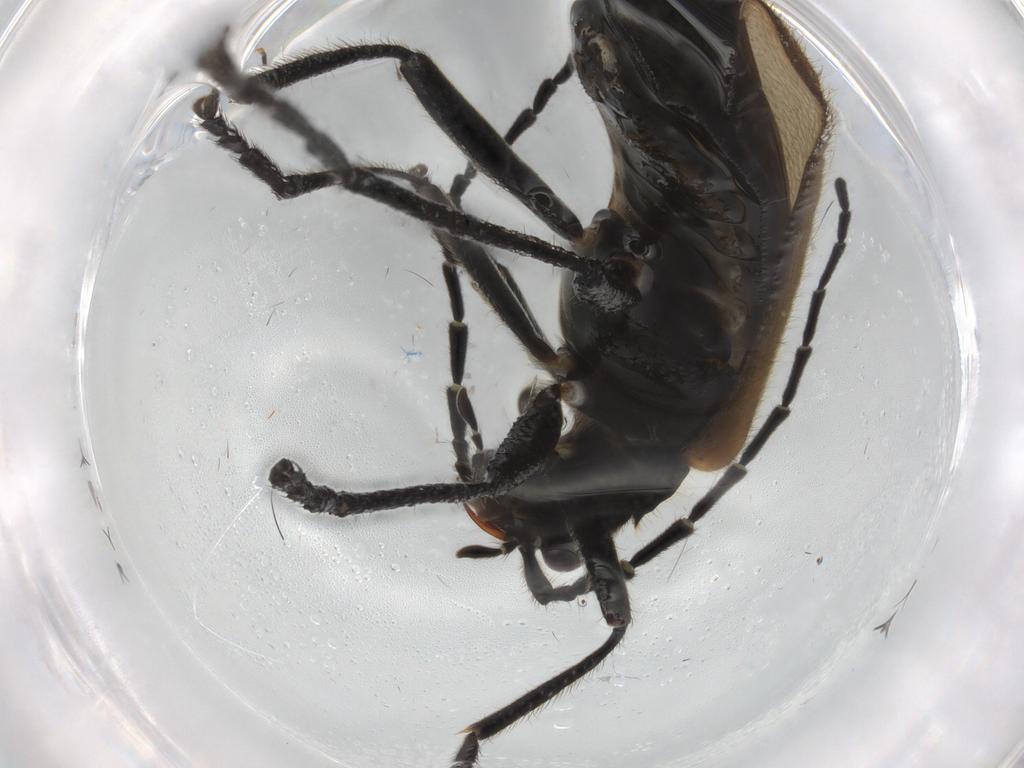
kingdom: Animalia
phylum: Arthropoda
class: Insecta
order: Coleoptera
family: Cantharidae
